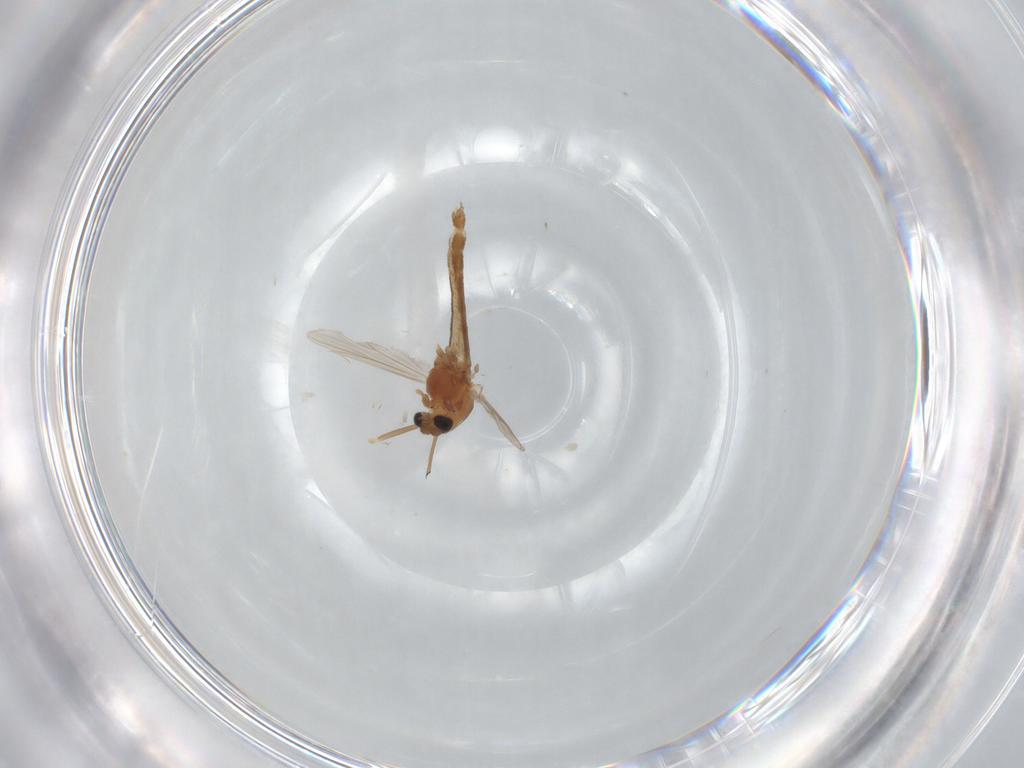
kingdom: Animalia
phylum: Arthropoda
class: Insecta
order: Diptera
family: Chironomidae
